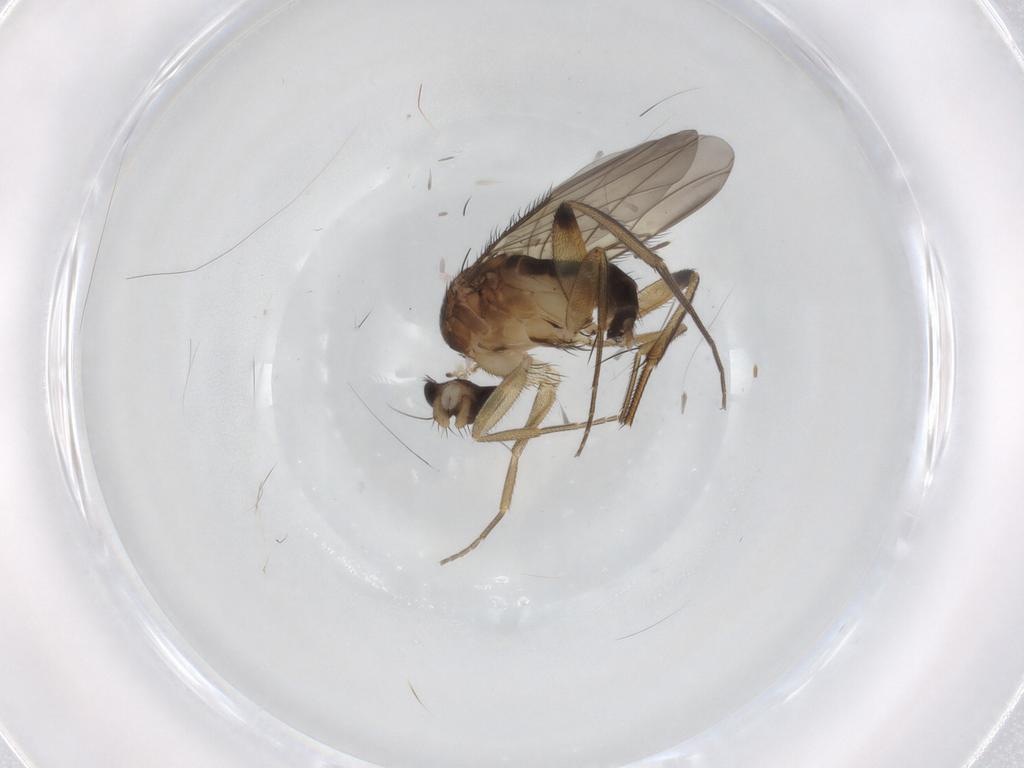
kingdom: Animalia
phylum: Arthropoda
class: Insecta
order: Diptera
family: Phoridae
